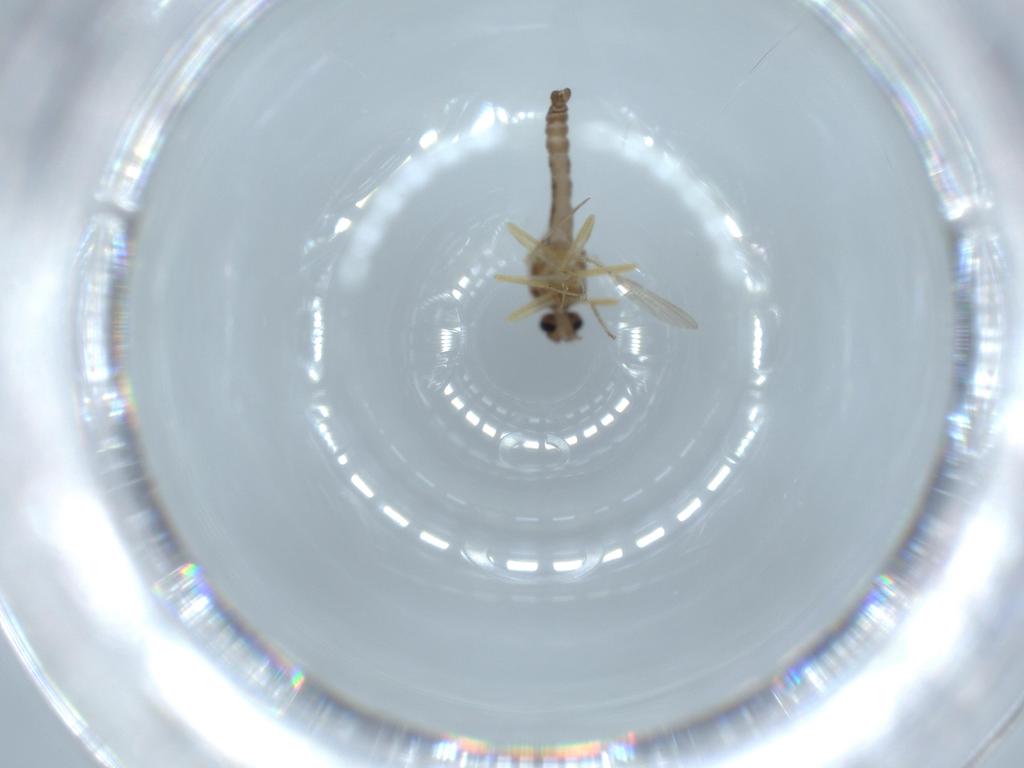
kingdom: Animalia
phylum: Arthropoda
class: Insecta
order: Diptera
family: Ceratopogonidae
